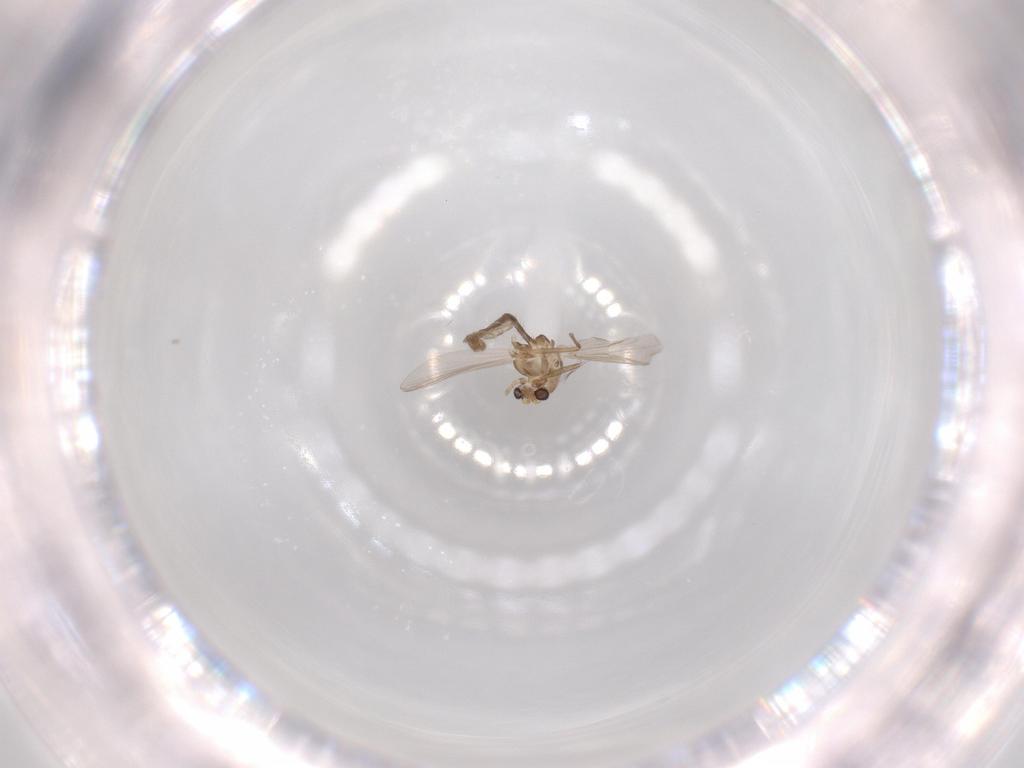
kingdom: Animalia
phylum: Arthropoda
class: Insecta
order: Diptera
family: Chironomidae
